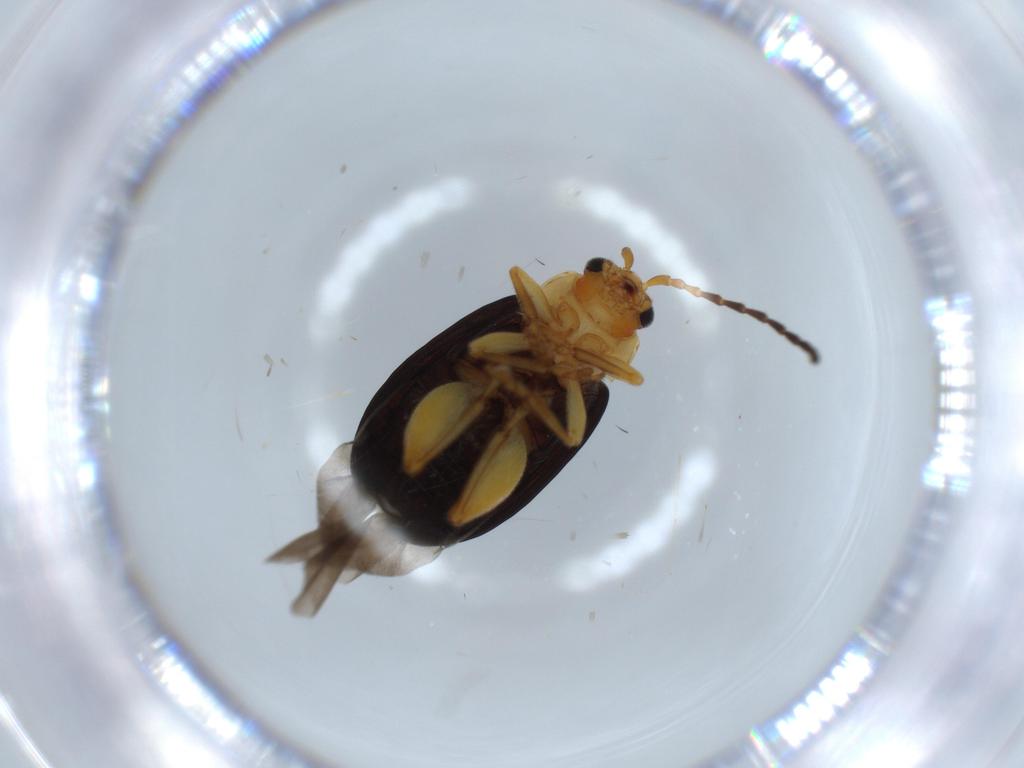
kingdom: Animalia
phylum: Arthropoda
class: Insecta
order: Coleoptera
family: Chrysomelidae
